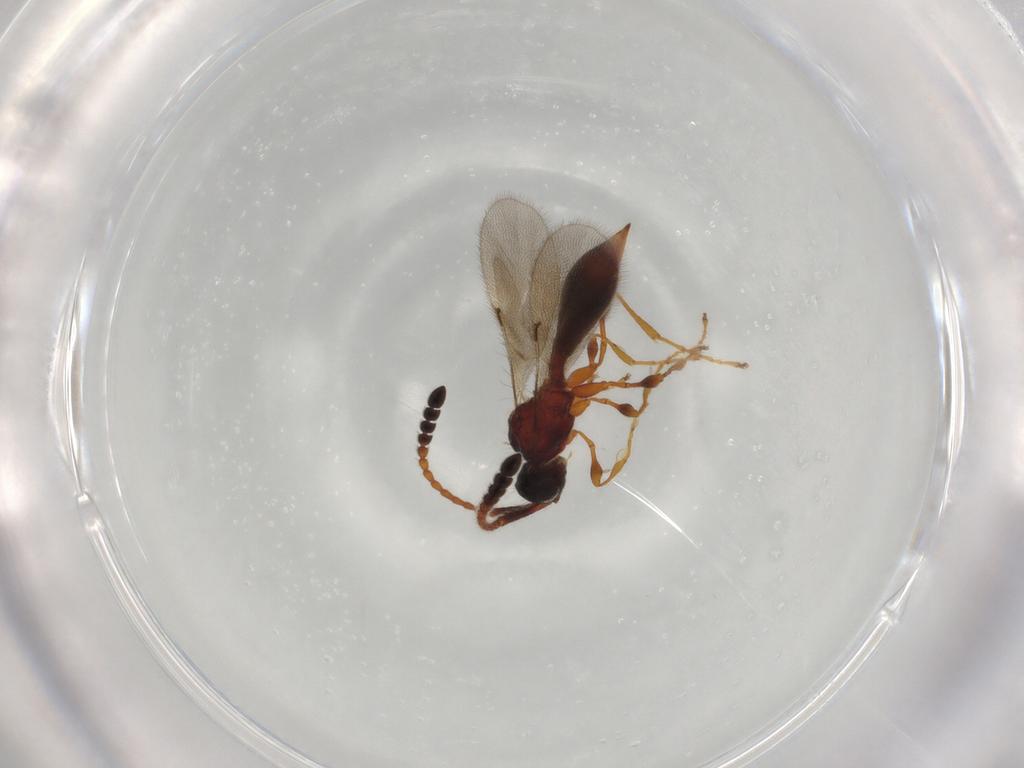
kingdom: Animalia
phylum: Arthropoda
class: Insecta
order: Hymenoptera
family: Diapriidae
